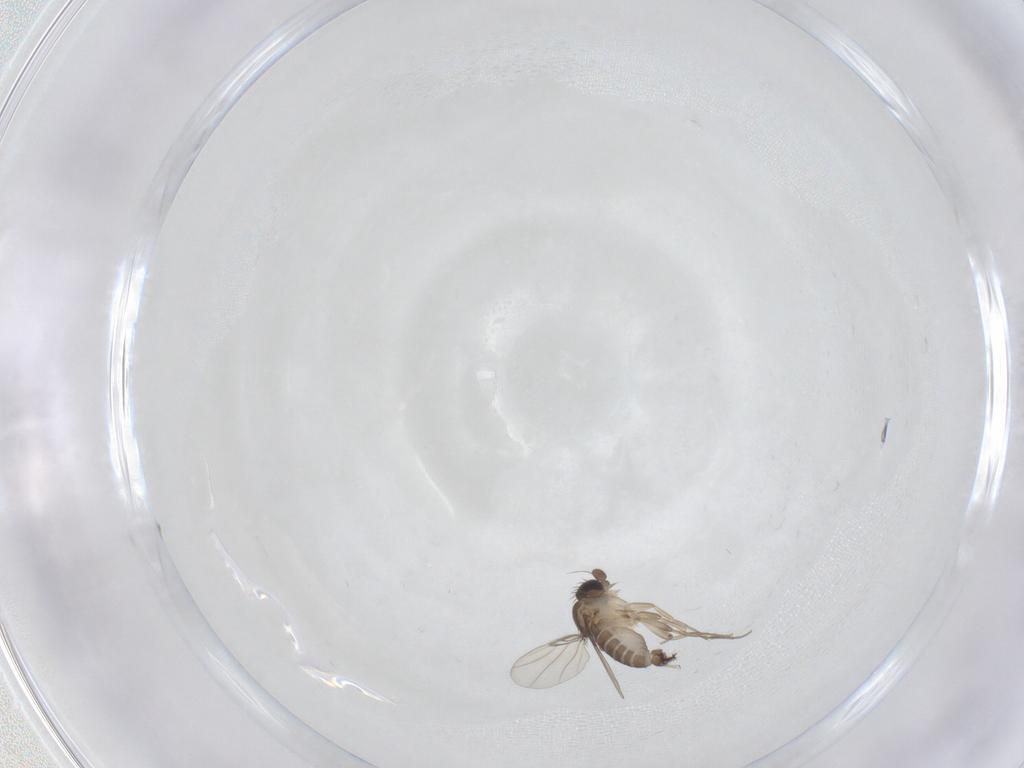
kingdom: Animalia
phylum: Arthropoda
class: Insecta
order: Diptera
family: Phoridae
